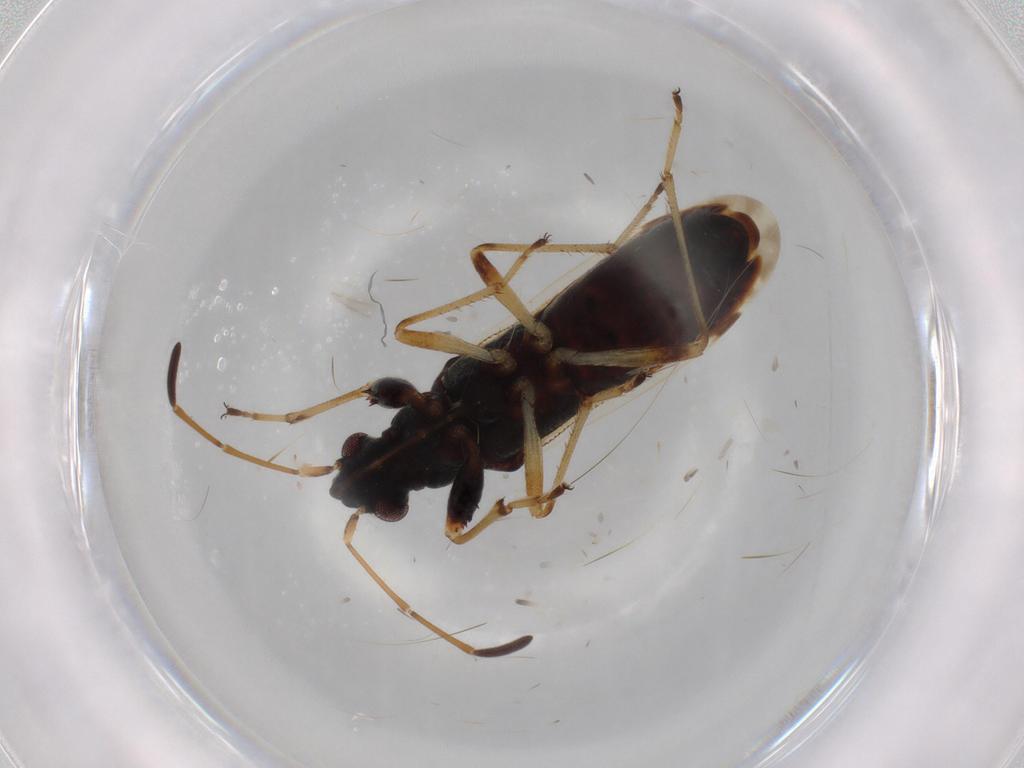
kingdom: Animalia
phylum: Arthropoda
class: Insecta
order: Hemiptera
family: Rhyparochromidae
